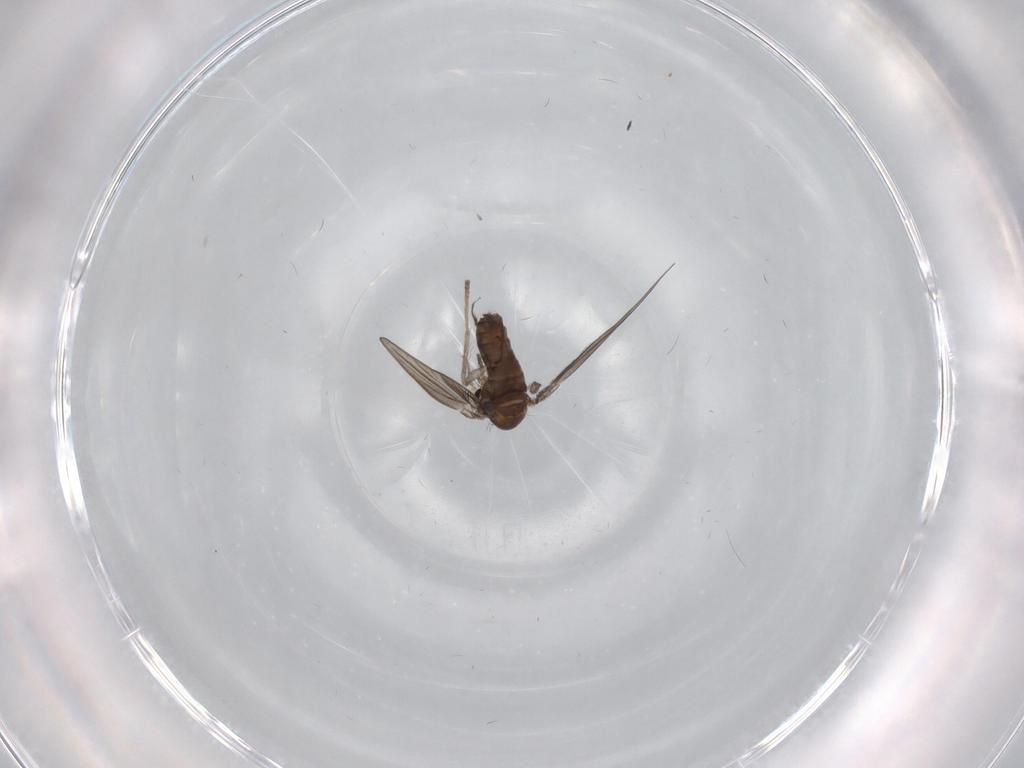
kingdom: Animalia
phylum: Arthropoda
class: Insecta
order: Diptera
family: Psychodidae
